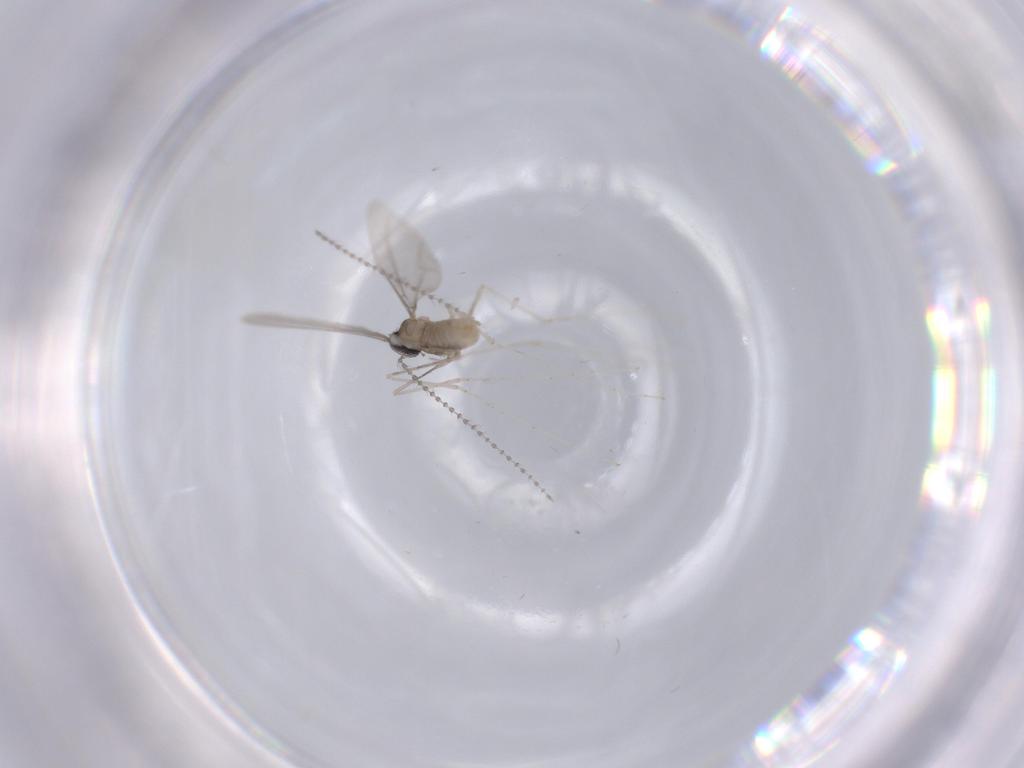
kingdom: Animalia
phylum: Arthropoda
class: Insecta
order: Diptera
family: Cecidomyiidae
